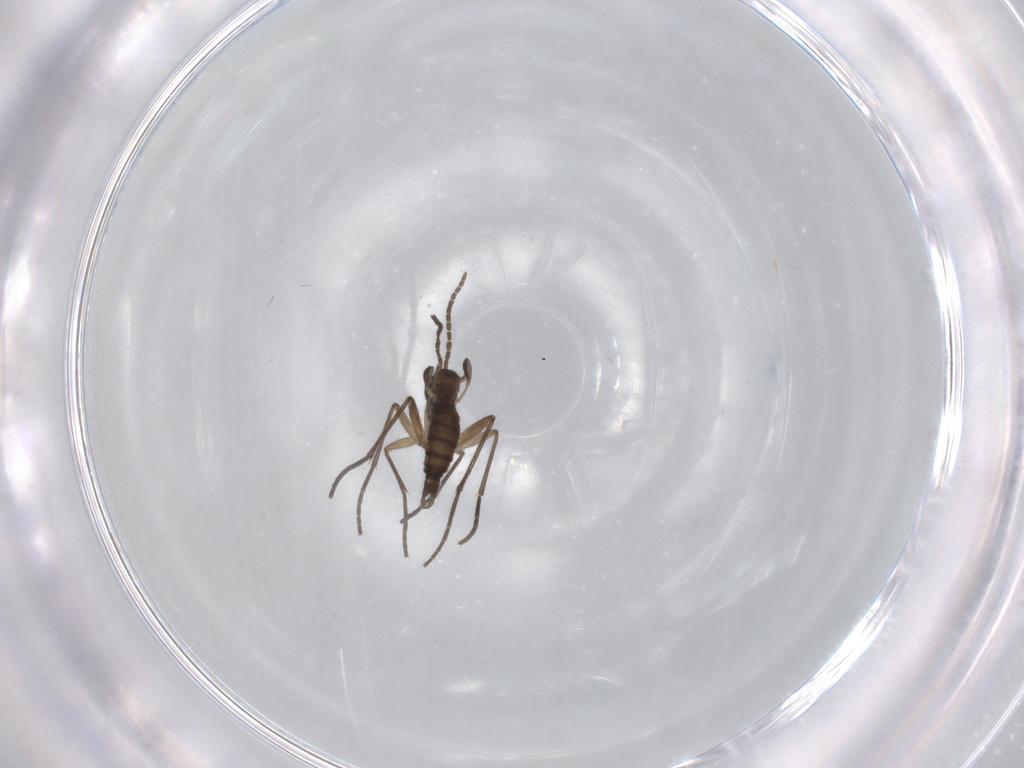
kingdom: Animalia
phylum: Arthropoda
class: Insecta
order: Diptera
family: Sciaridae
